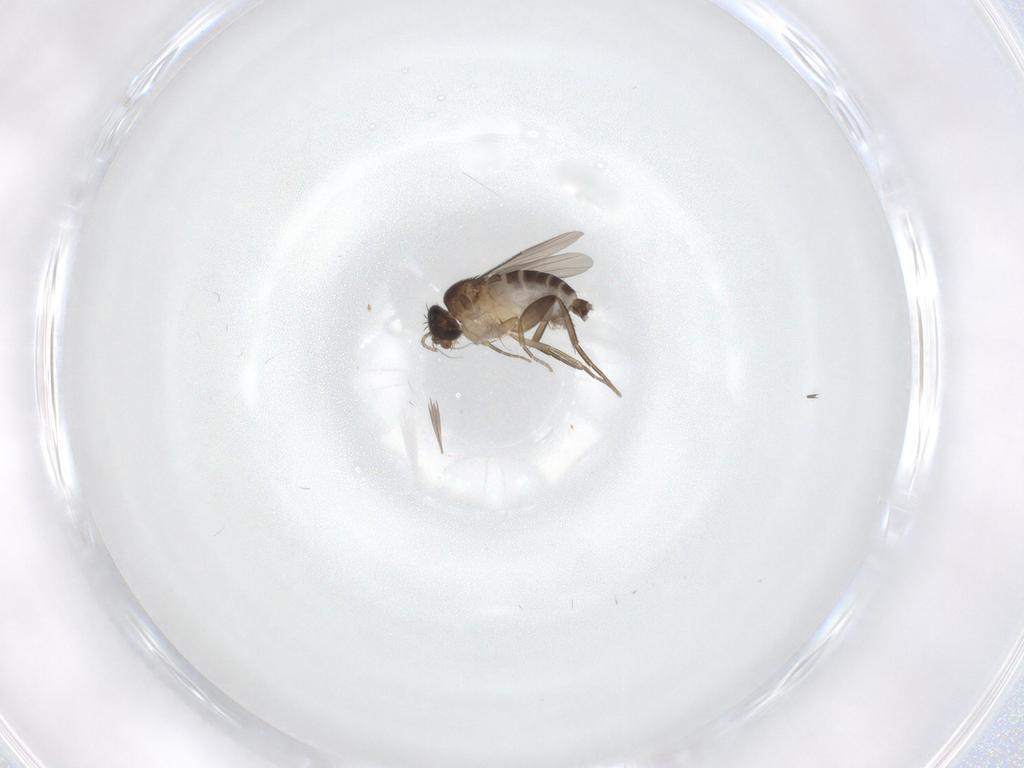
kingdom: Animalia
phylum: Arthropoda
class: Insecta
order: Diptera
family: Phoridae
